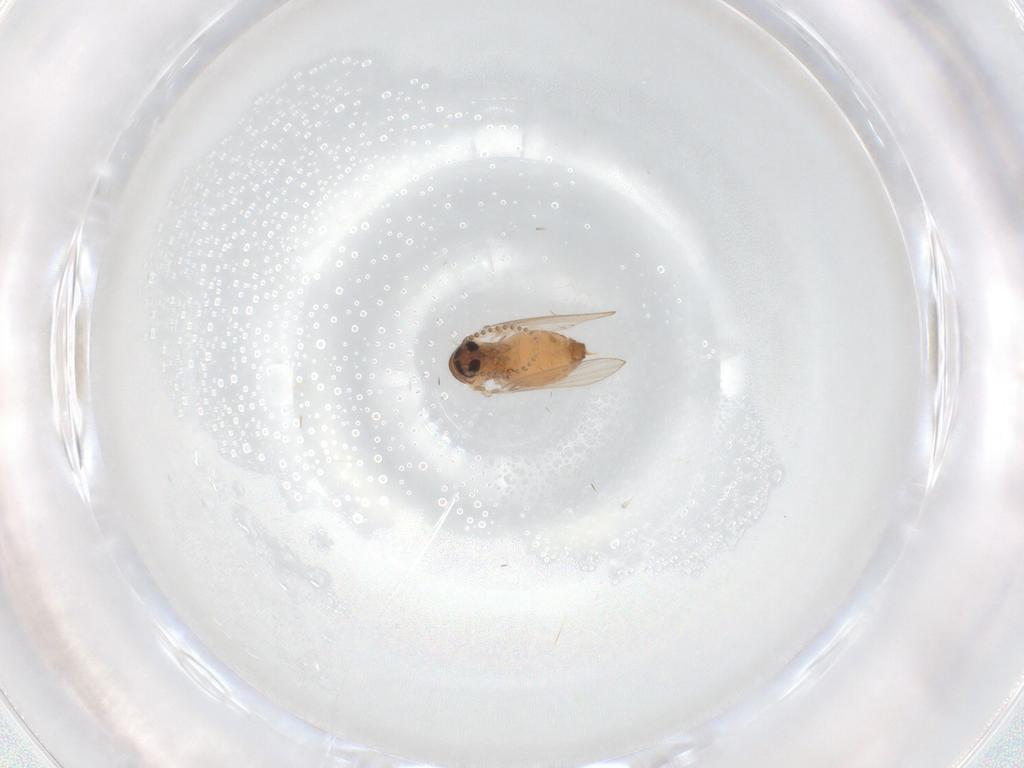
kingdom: Animalia
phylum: Arthropoda
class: Insecta
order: Diptera
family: Psychodidae
